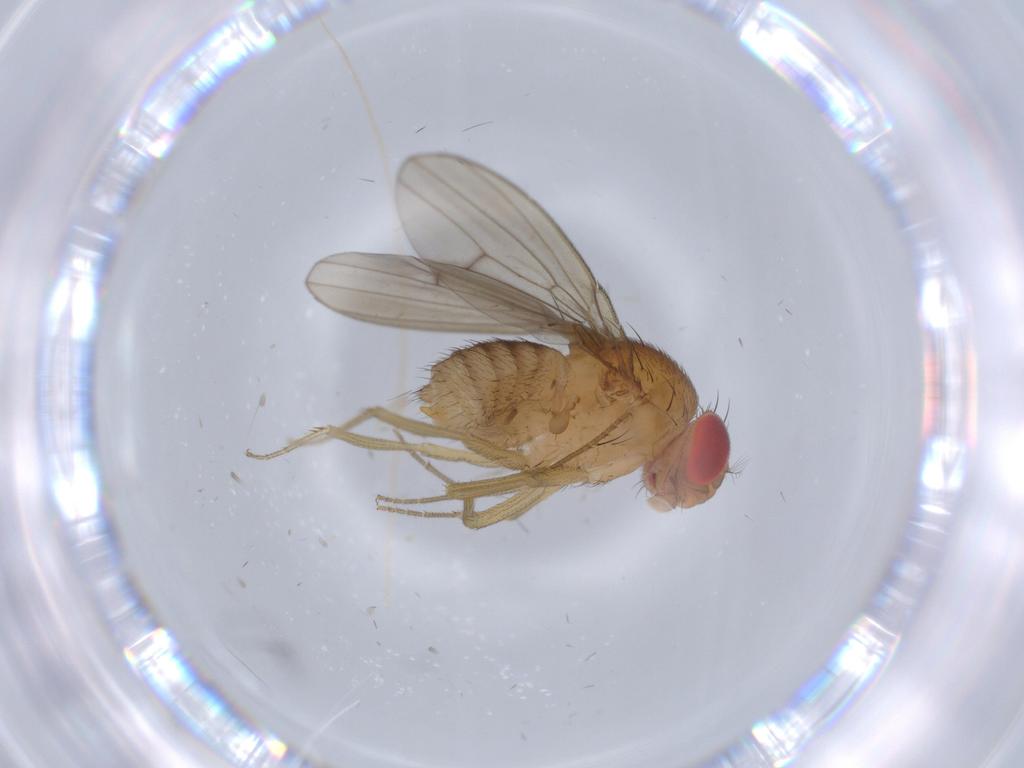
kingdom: Animalia
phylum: Arthropoda
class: Insecta
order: Diptera
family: Drosophilidae
